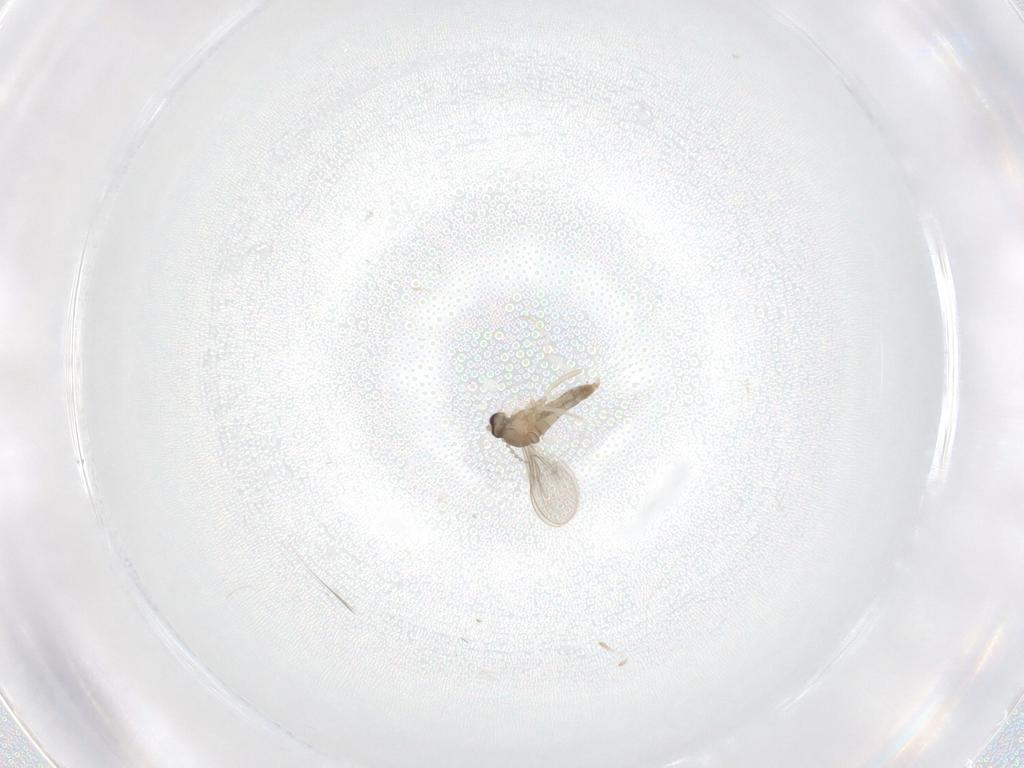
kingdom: Animalia
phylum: Arthropoda
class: Insecta
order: Diptera
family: Cecidomyiidae
